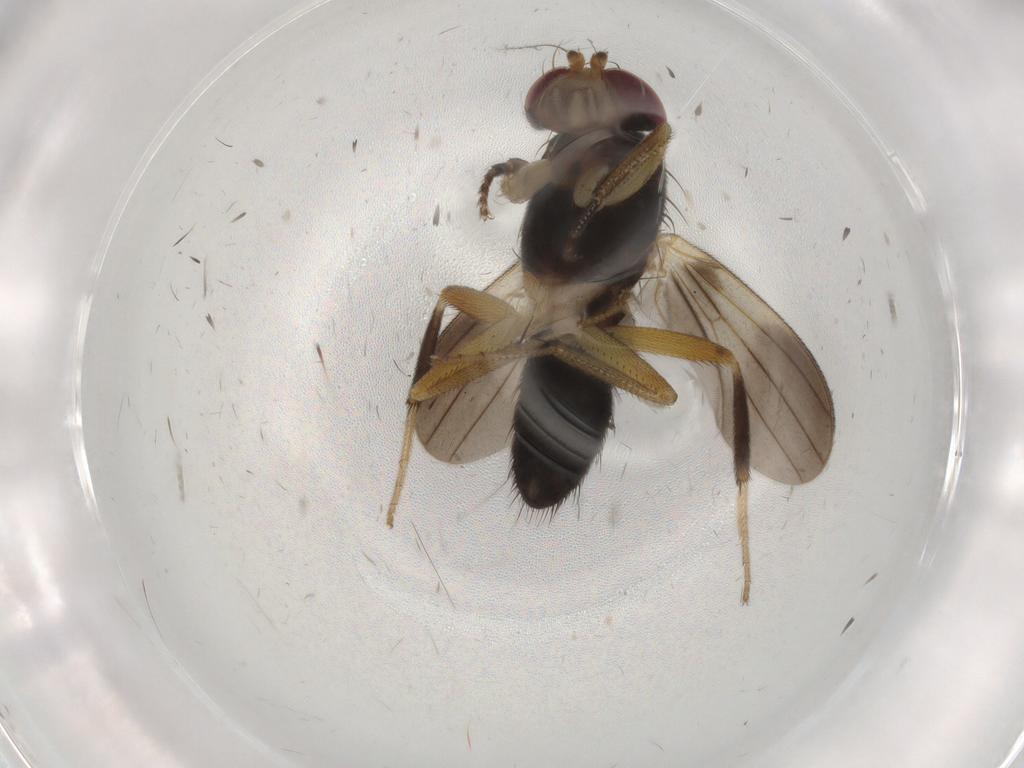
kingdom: Animalia
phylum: Arthropoda
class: Insecta
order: Diptera
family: Clusiidae
